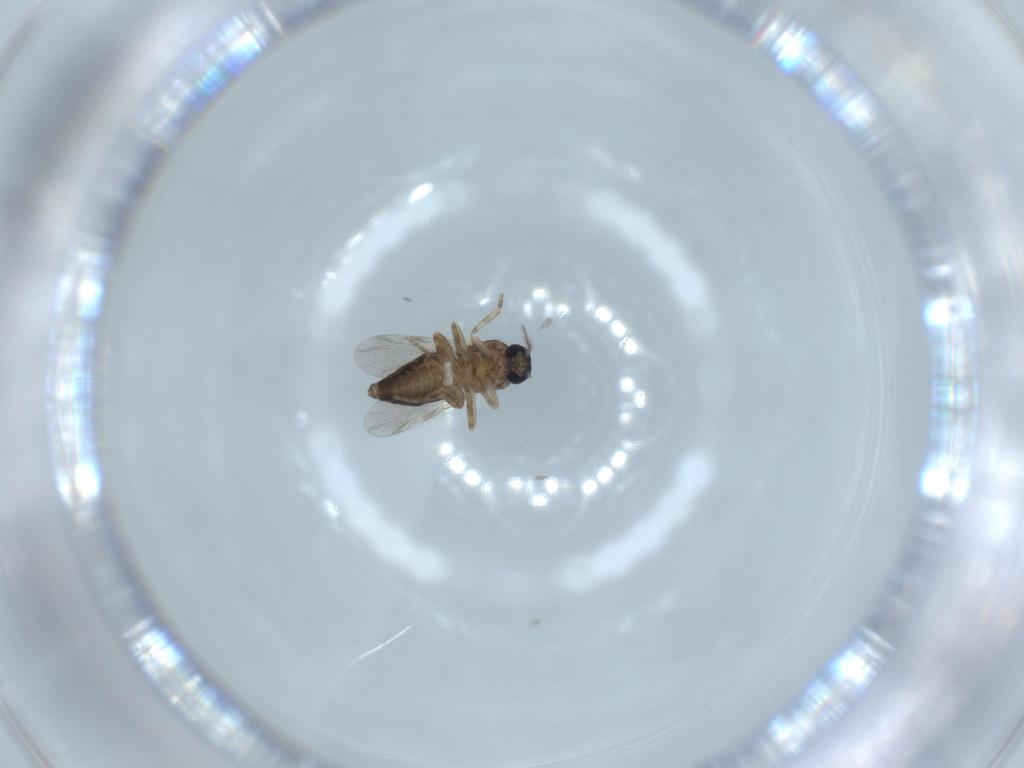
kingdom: Animalia
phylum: Arthropoda
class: Insecta
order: Diptera
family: Ceratopogonidae
